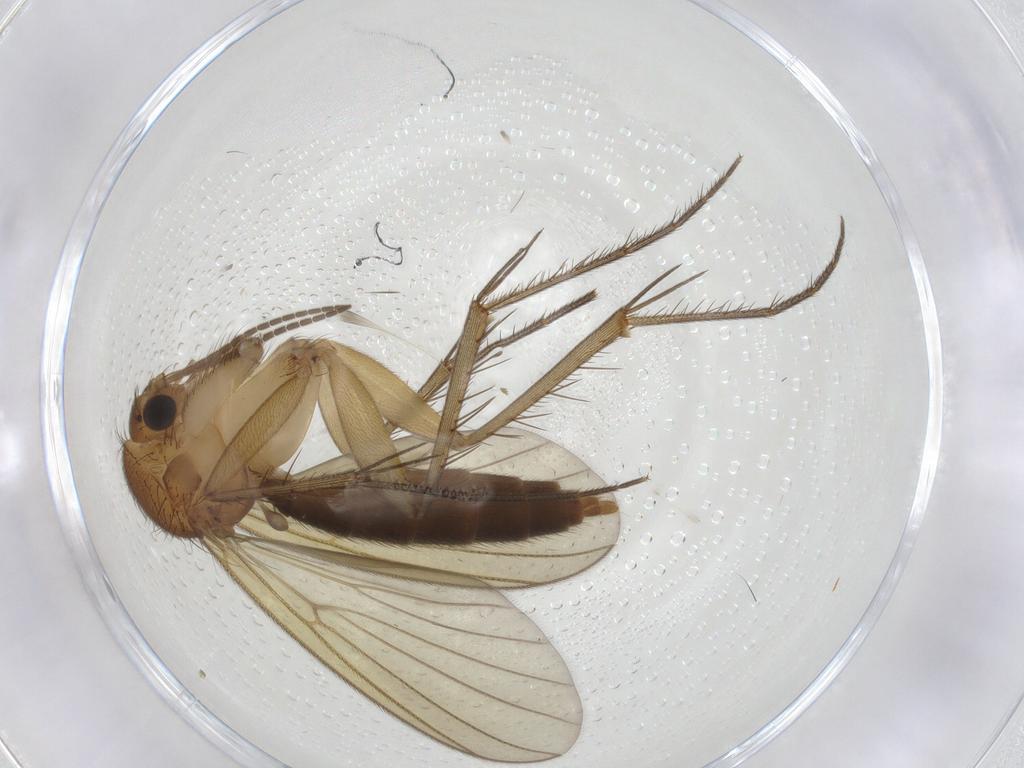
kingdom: Animalia
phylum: Arthropoda
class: Insecta
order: Diptera
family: Mycetophilidae
